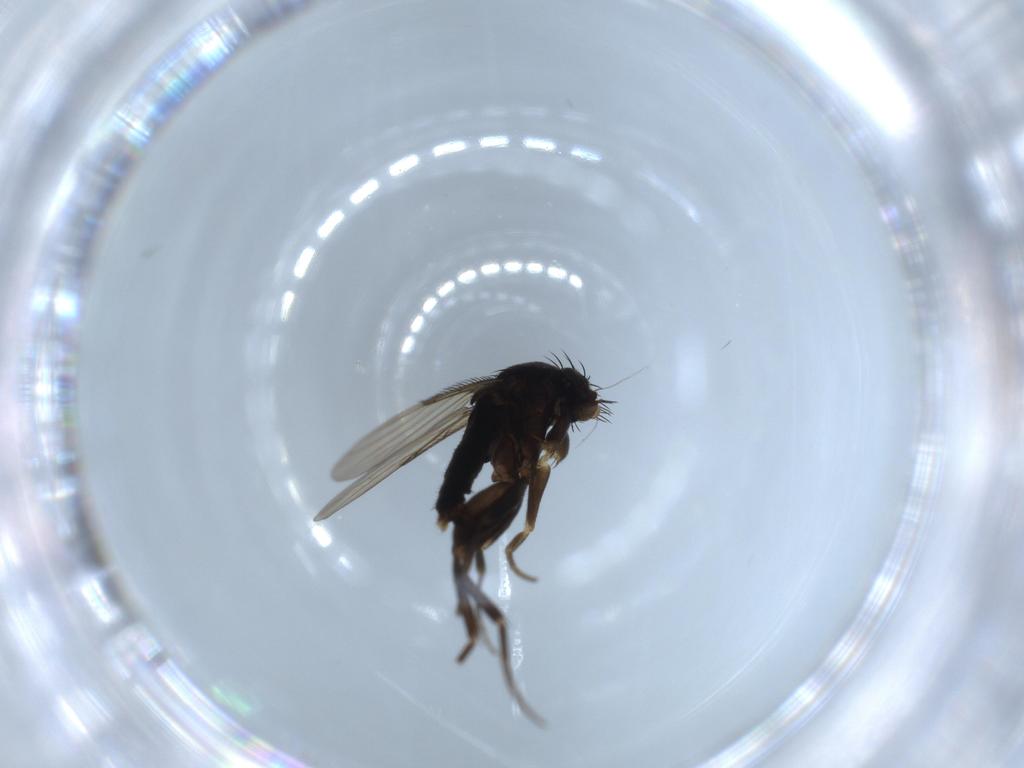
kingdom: Animalia
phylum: Arthropoda
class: Insecta
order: Diptera
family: Phoridae
